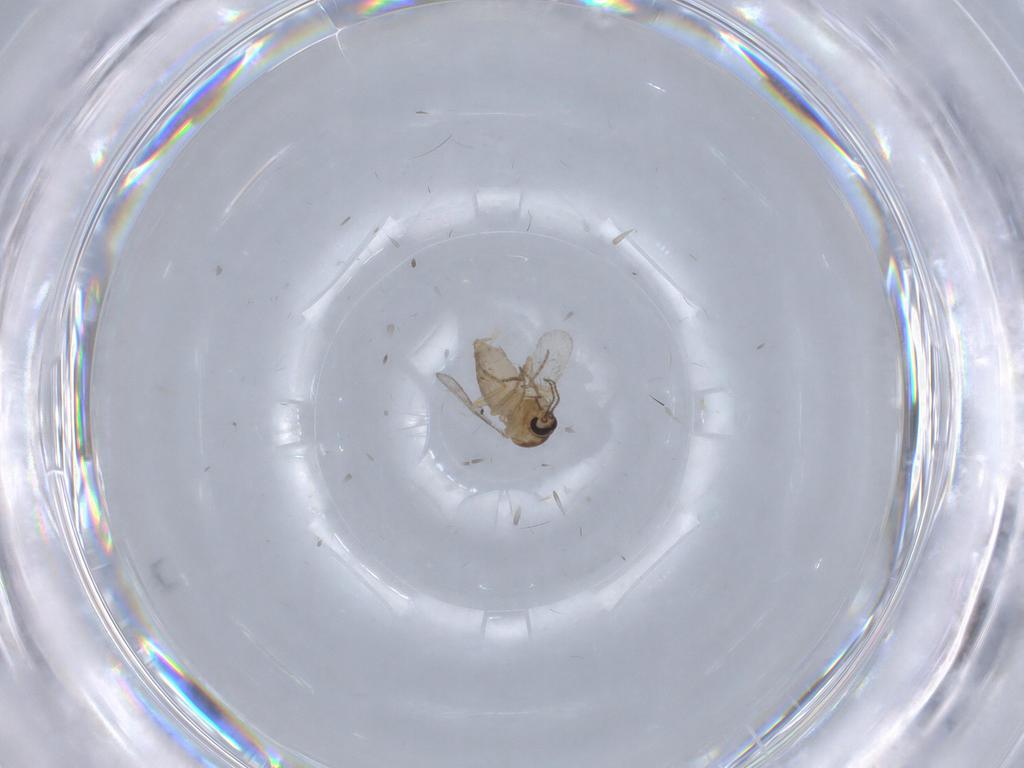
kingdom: Animalia
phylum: Arthropoda
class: Insecta
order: Diptera
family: Ceratopogonidae
